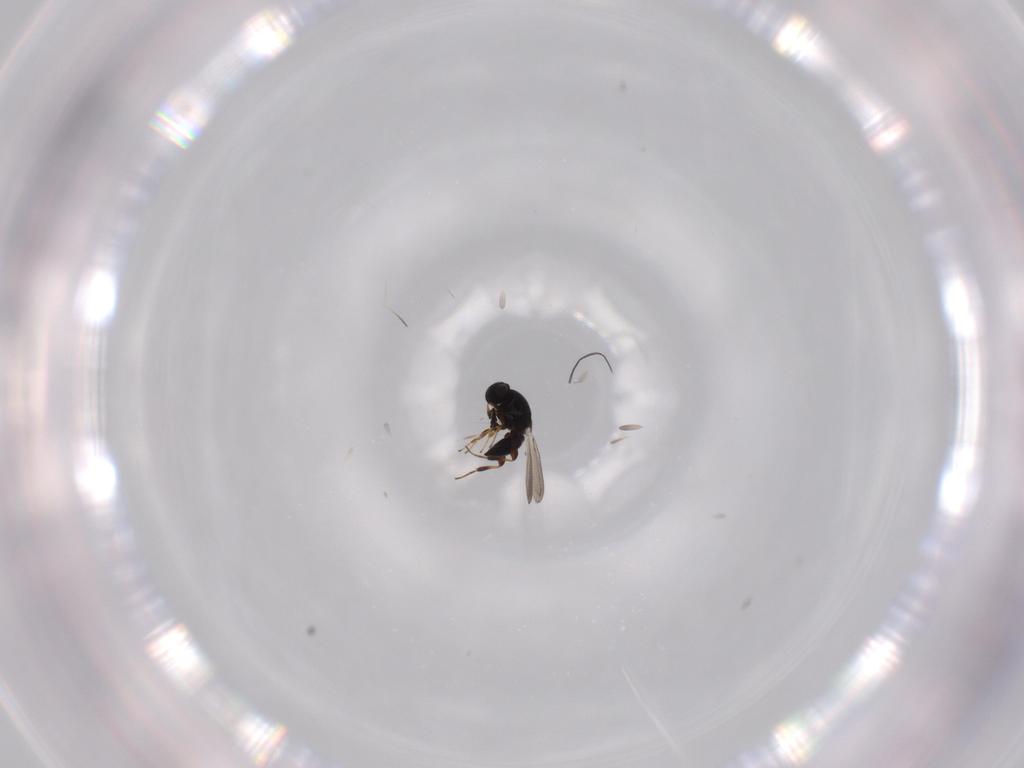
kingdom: Animalia
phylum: Arthropoda
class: Insecta
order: Hymenoptera
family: Platygastridae
